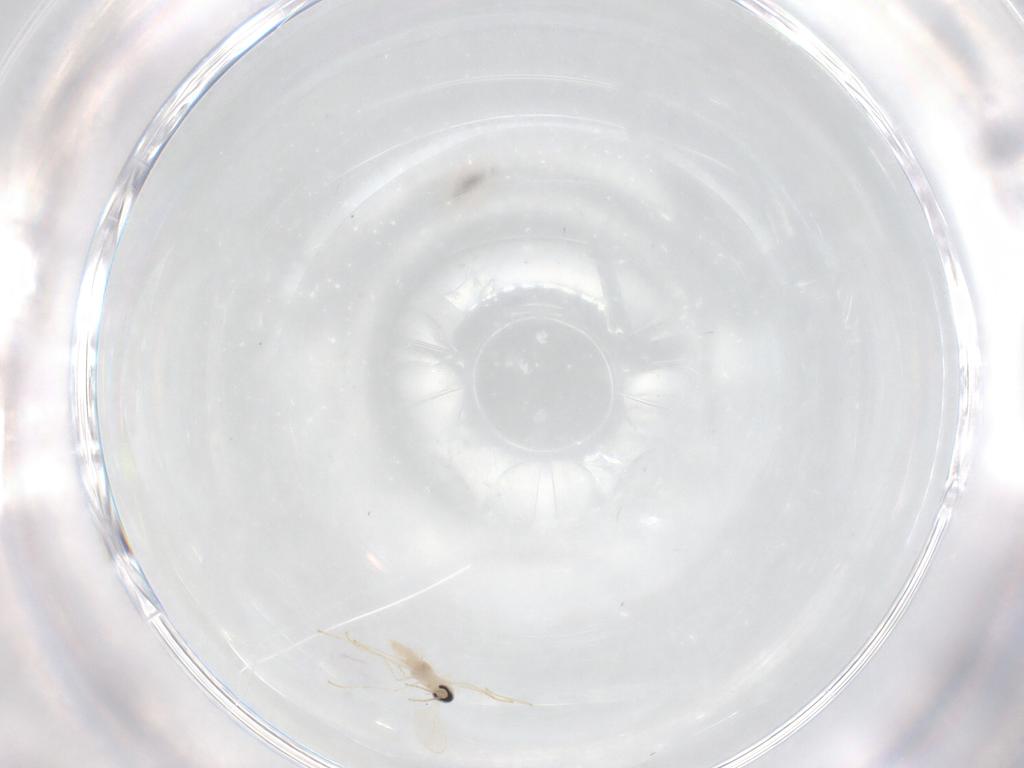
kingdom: Animalia
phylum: Arthropoda
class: Insecta
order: Diptera
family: Cecidomyiidae
